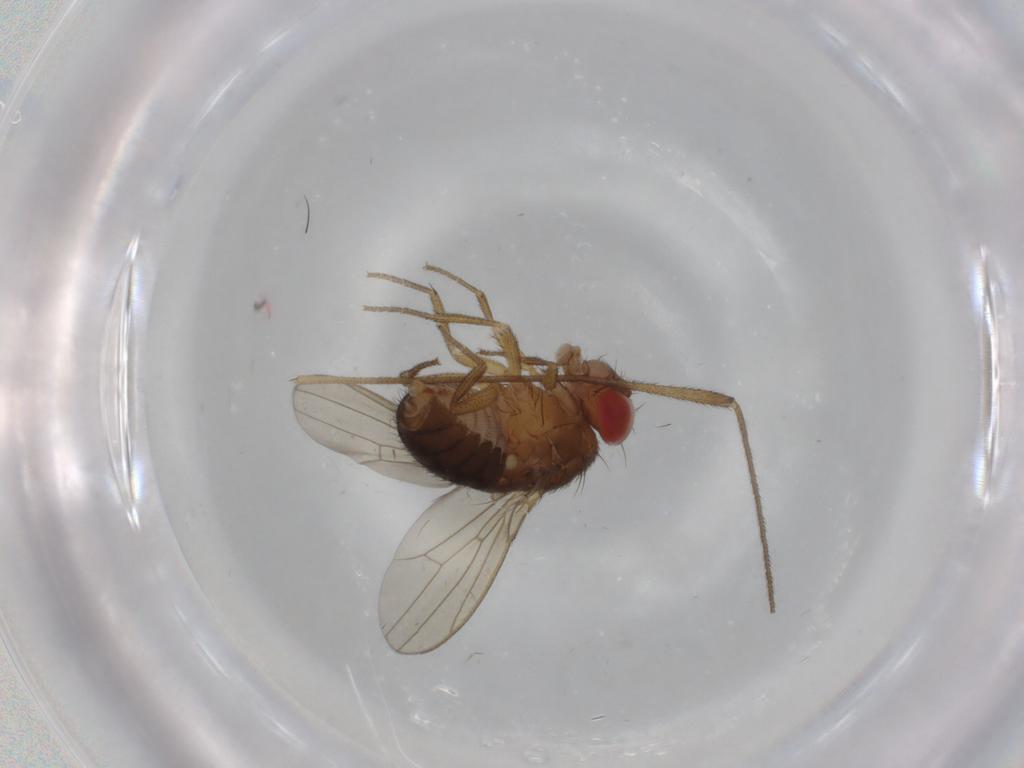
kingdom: Animalia
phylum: Arthropoda
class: Insecta
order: Diptera
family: Drosophilidae
